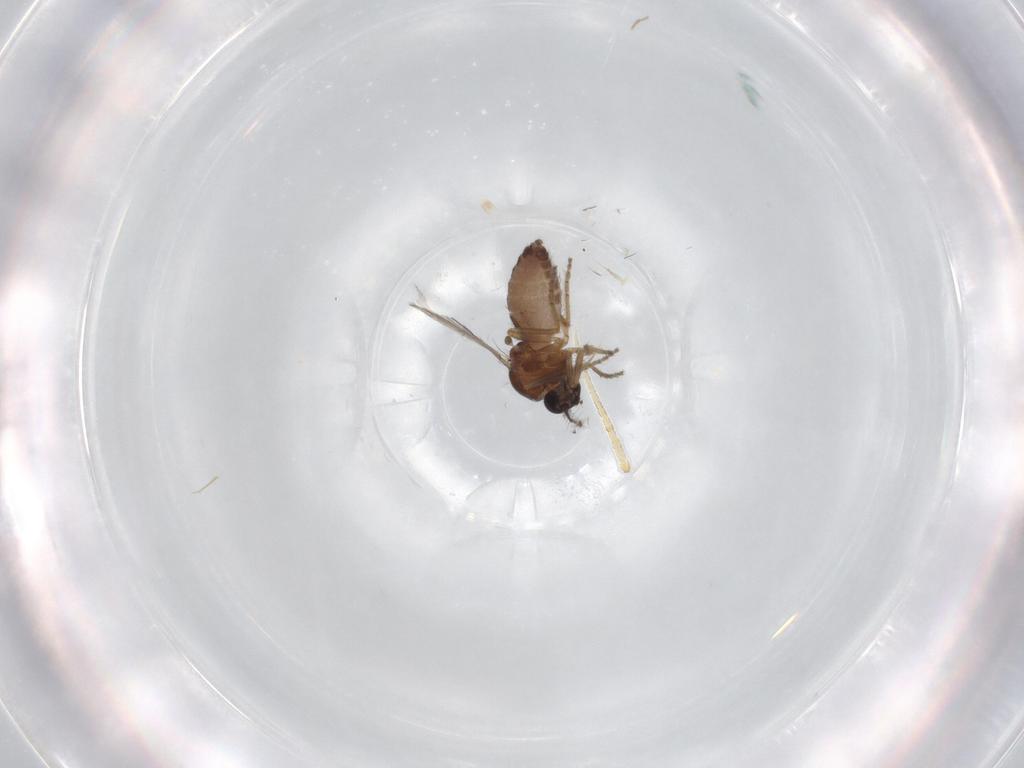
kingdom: Animalia
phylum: Arthropoda
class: Insecta
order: Diptera
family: Ceratopogonidae
